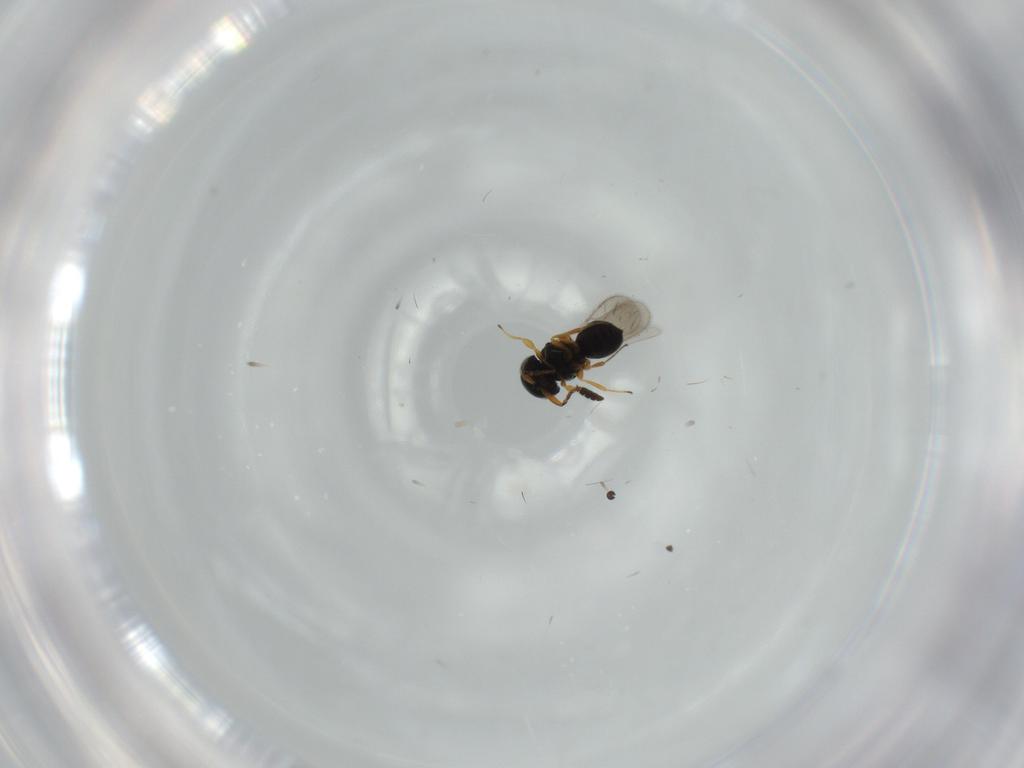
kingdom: Animalia
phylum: Arthropoda
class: Insecta
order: Hymenoptera
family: Scelionidae
